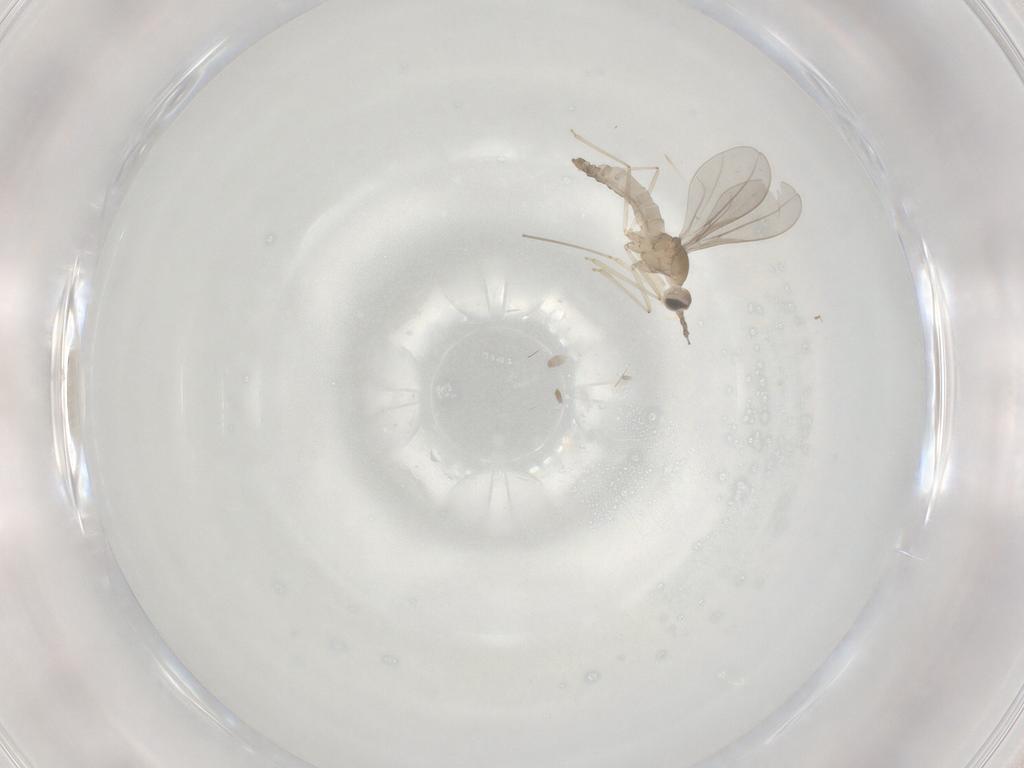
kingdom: Animalia
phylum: Arthropoda
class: Insecta
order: Diptera
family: Cecidomyiidae
